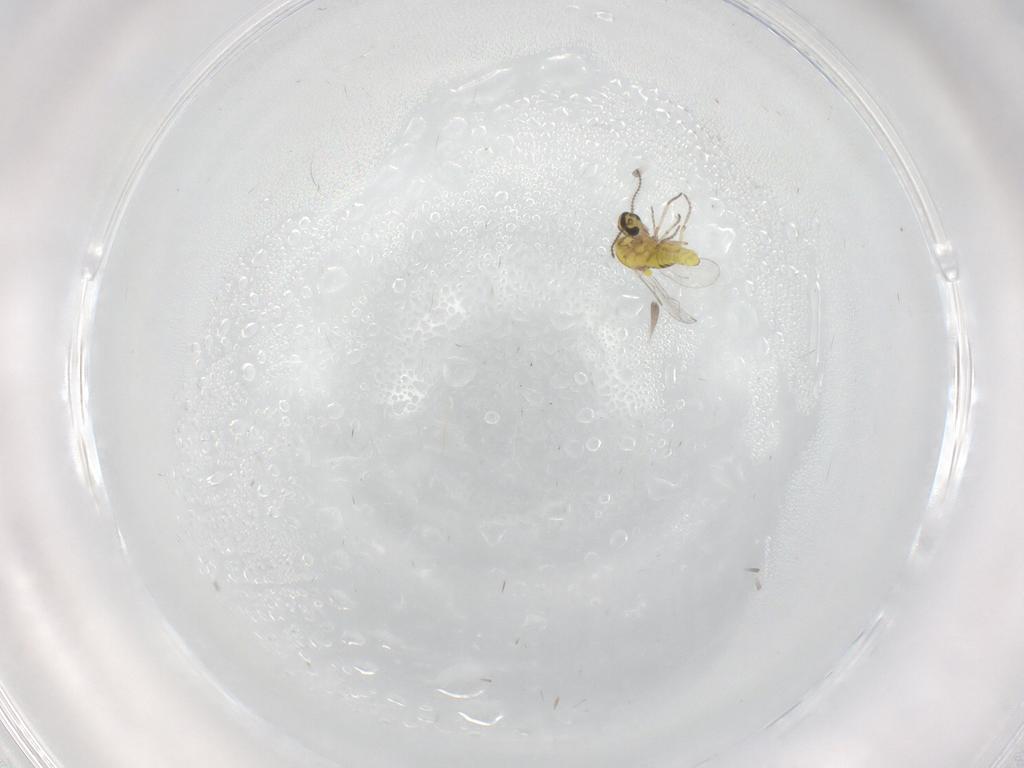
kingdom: Animalia
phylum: Arthropoda
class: Insecta
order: Diptera
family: Ceratopogonidae
